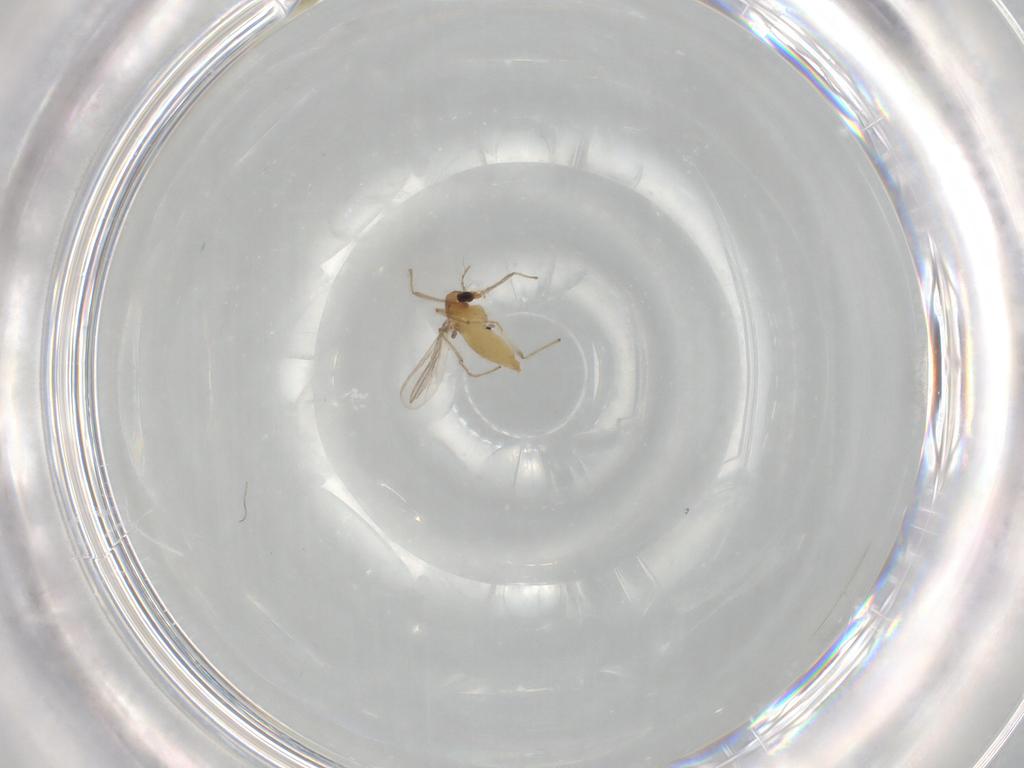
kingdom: Animalia
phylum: Arthropoda
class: Insecta
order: Diptera
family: Chironomidae
